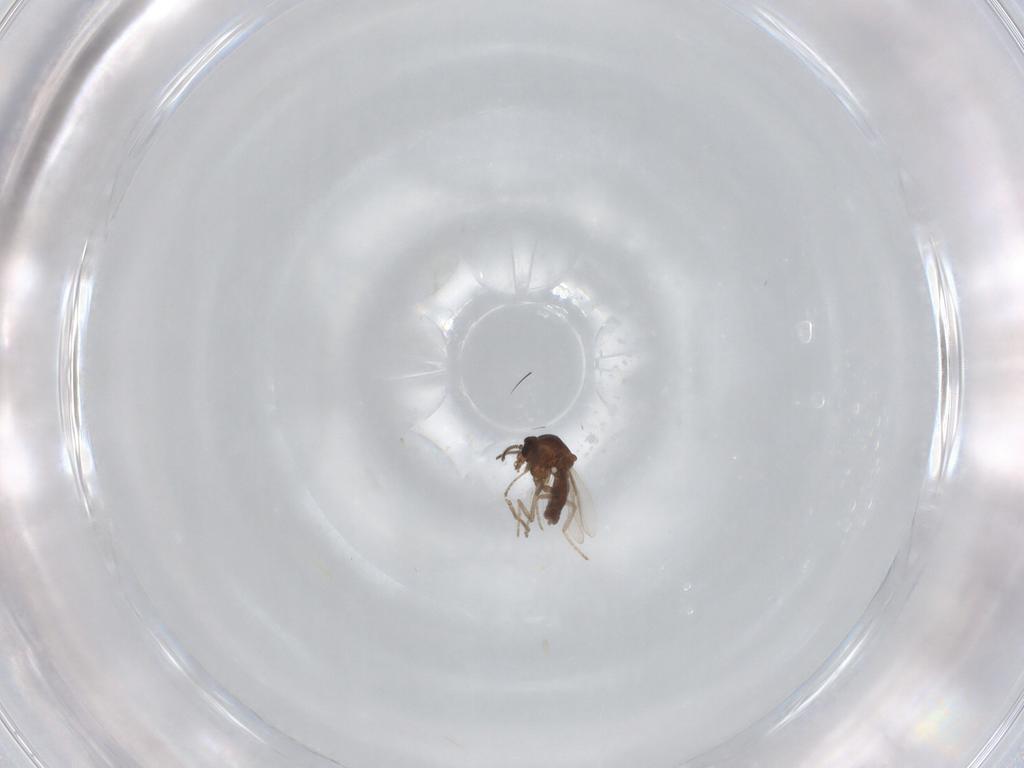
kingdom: Animalia
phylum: Arthropoda
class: Insecta
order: Diptera
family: Ceratopogonidae
